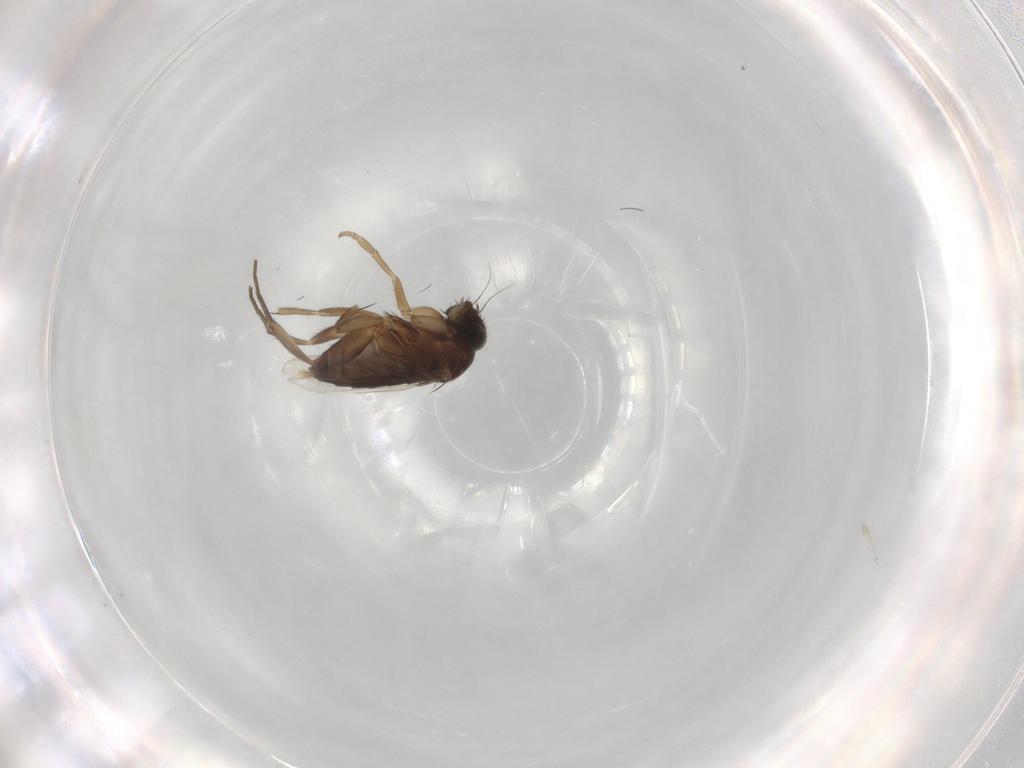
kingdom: Animalia
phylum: Arthropoda
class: Insecta
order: Diptera
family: Phoridae
